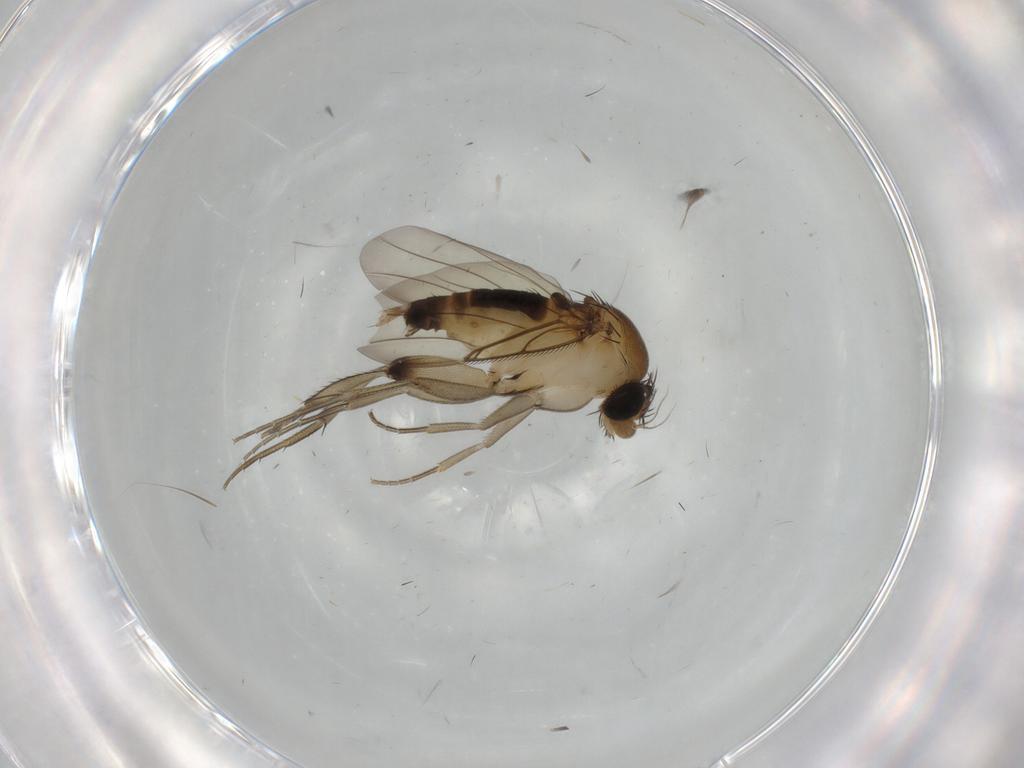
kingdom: Animalia
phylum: Arthropoda
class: Insecta
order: Diptera
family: Phoridae
